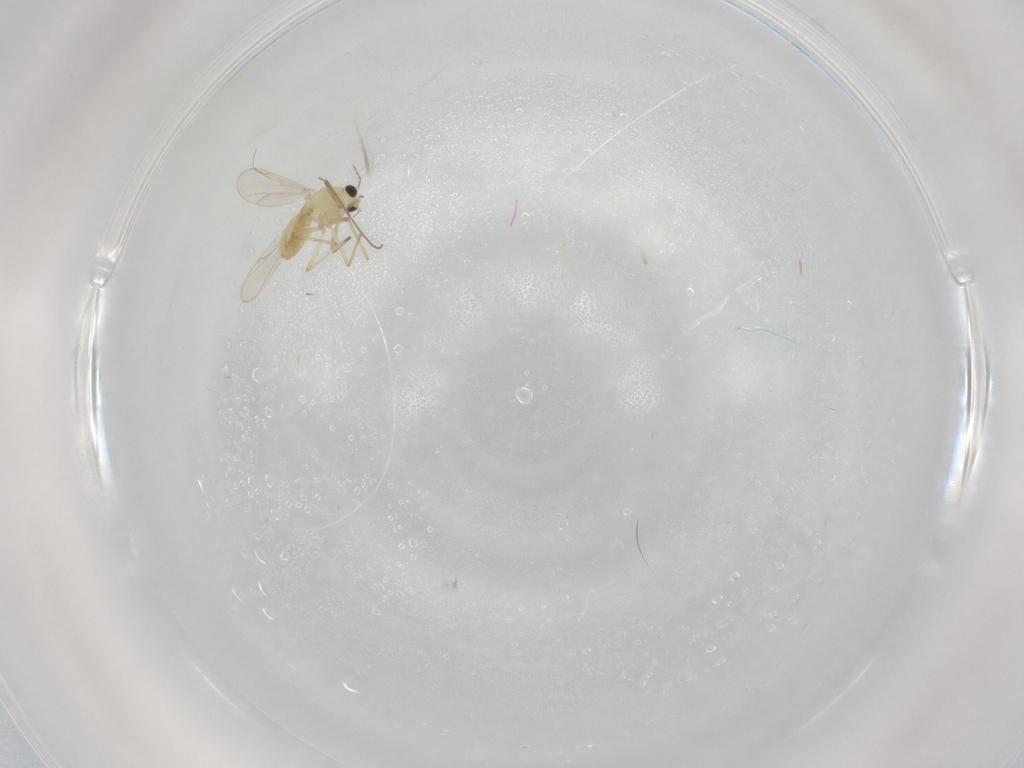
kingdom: Animalia
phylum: Arthropoda
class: Insecta
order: Diptera
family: Chironomidae
